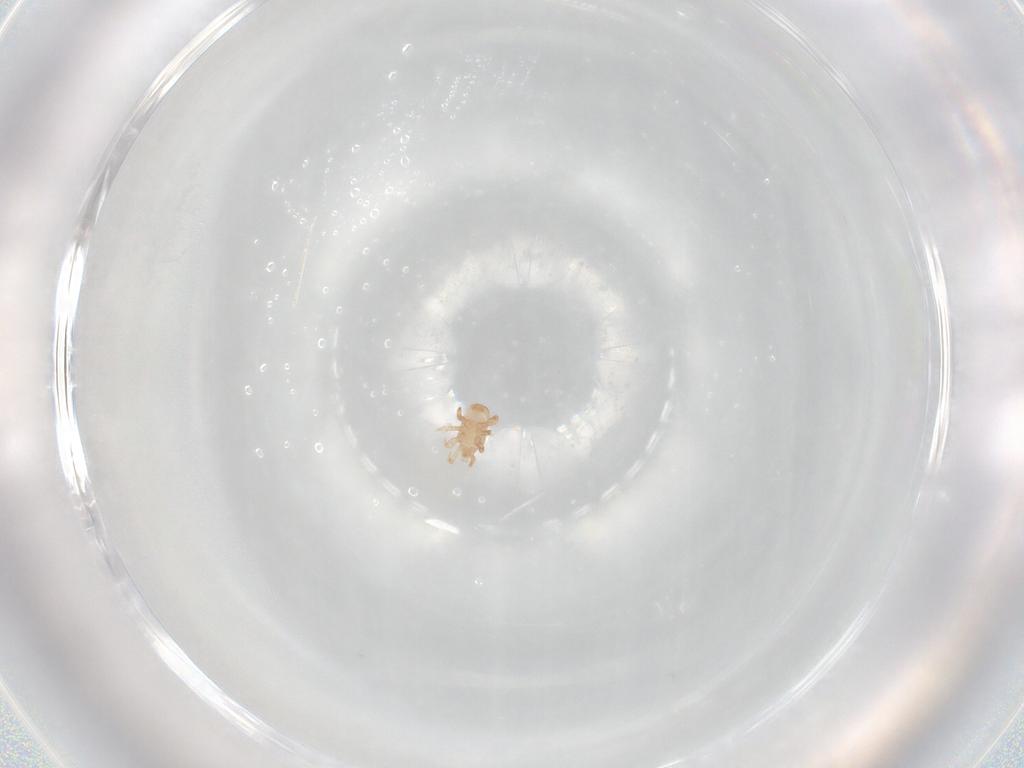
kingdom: Animalia
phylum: Arthropoda
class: Arachnida
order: Mesostigmata
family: Halolaelapidae
